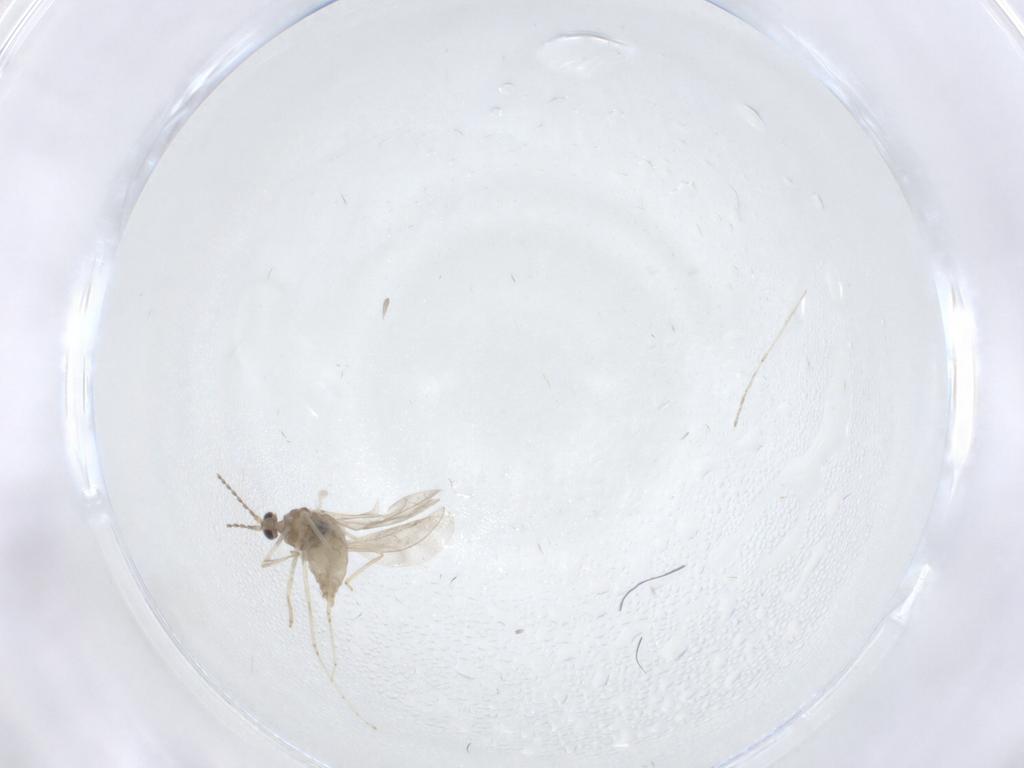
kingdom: Animalia
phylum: Arthropoda
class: Insecta
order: Diptera
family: Cecidomyiidae
